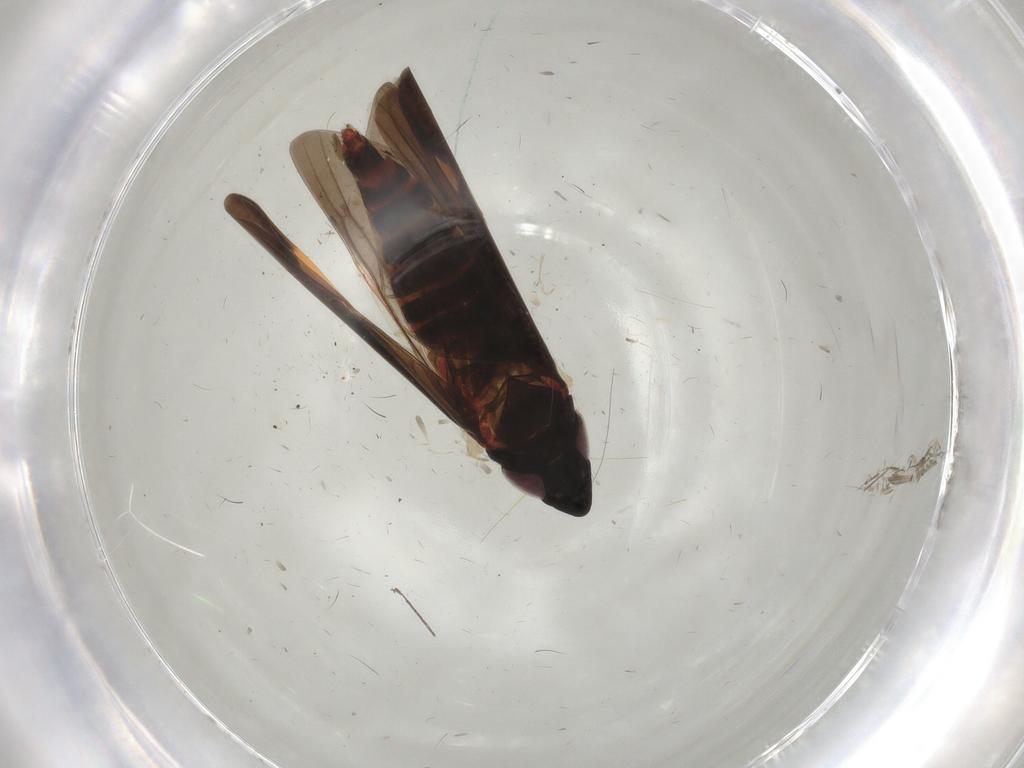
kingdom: Animalia
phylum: Arthropoda
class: Insecta
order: Hemiptera
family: Cicadellidae
